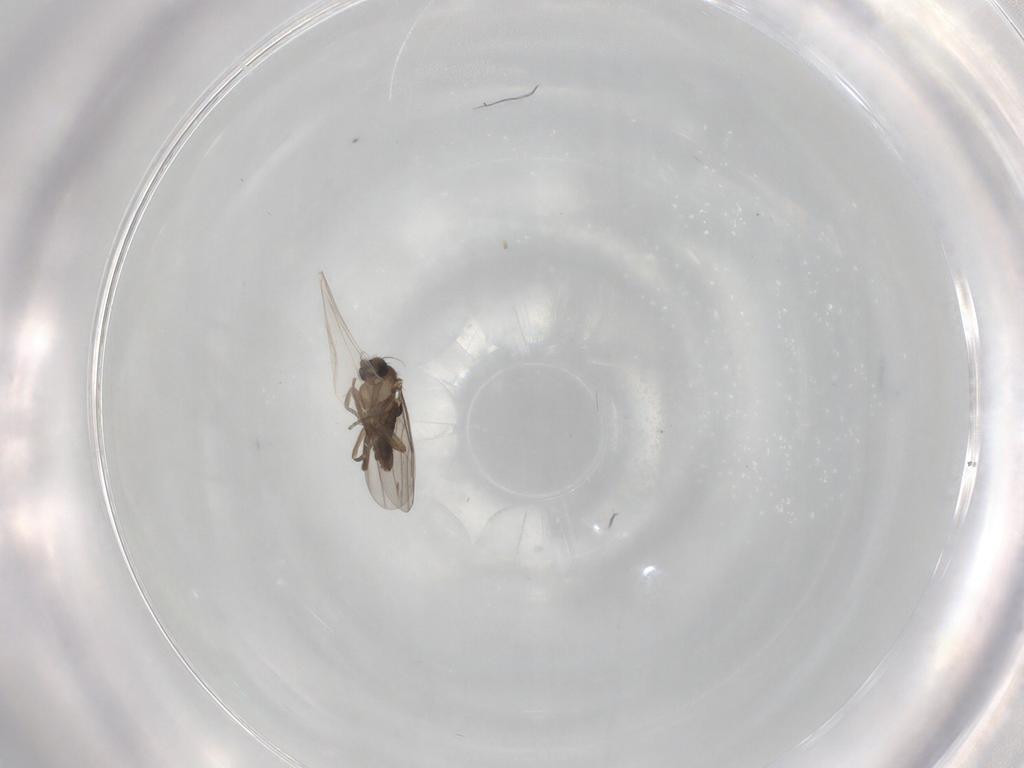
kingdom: Animalia
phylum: Arthropoda
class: Insecta
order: Diptera
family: Cecidomyiidae
